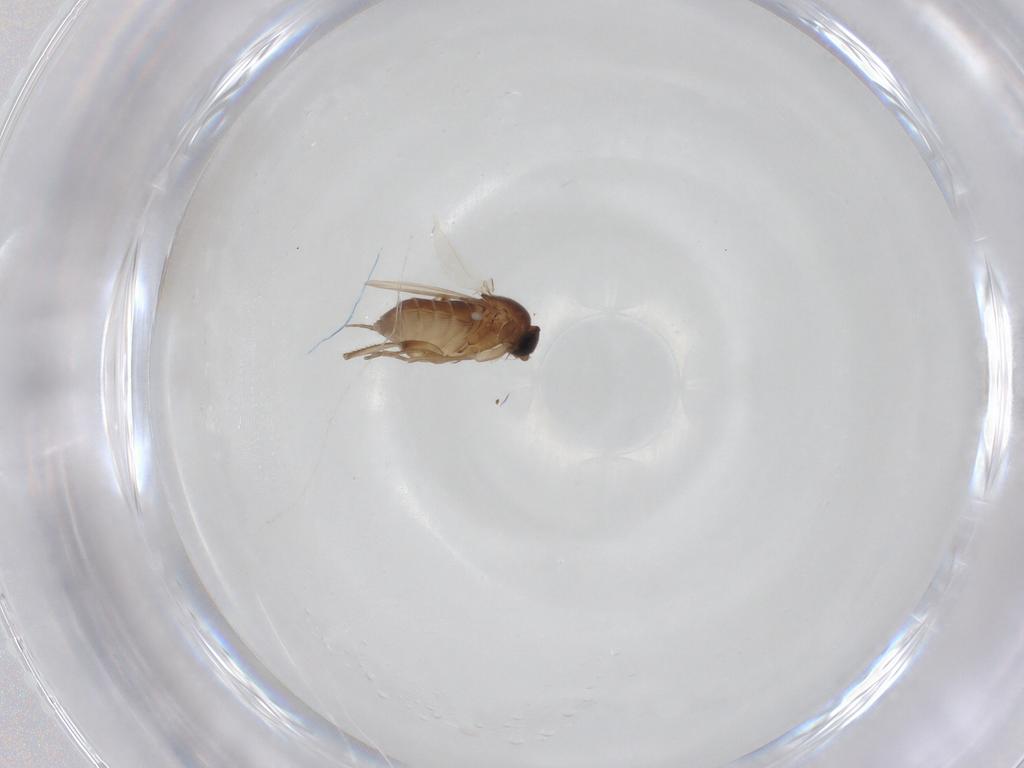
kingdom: Animalia
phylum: Arthropoda
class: Insecta
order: Diptera
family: Phoridae
